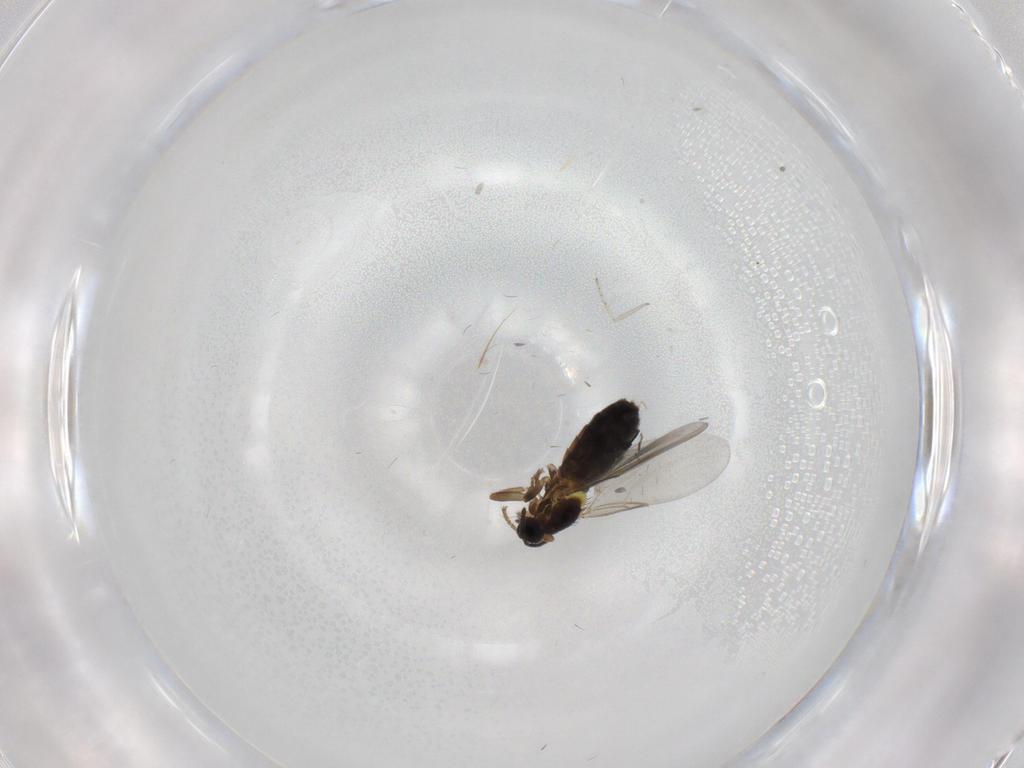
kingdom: Animalia
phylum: Arthropoda
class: Insecta
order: Diptera
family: Scatopsidae
